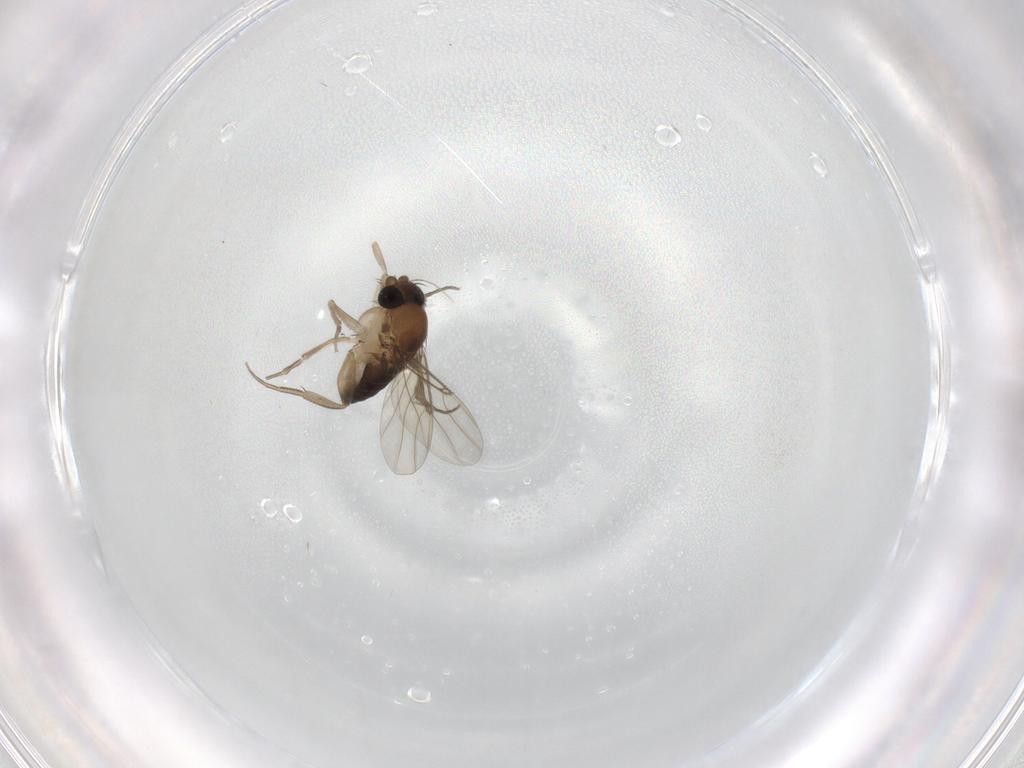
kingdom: Animalia
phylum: Arthropoda
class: Insecta
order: Diptera
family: Phoridae
